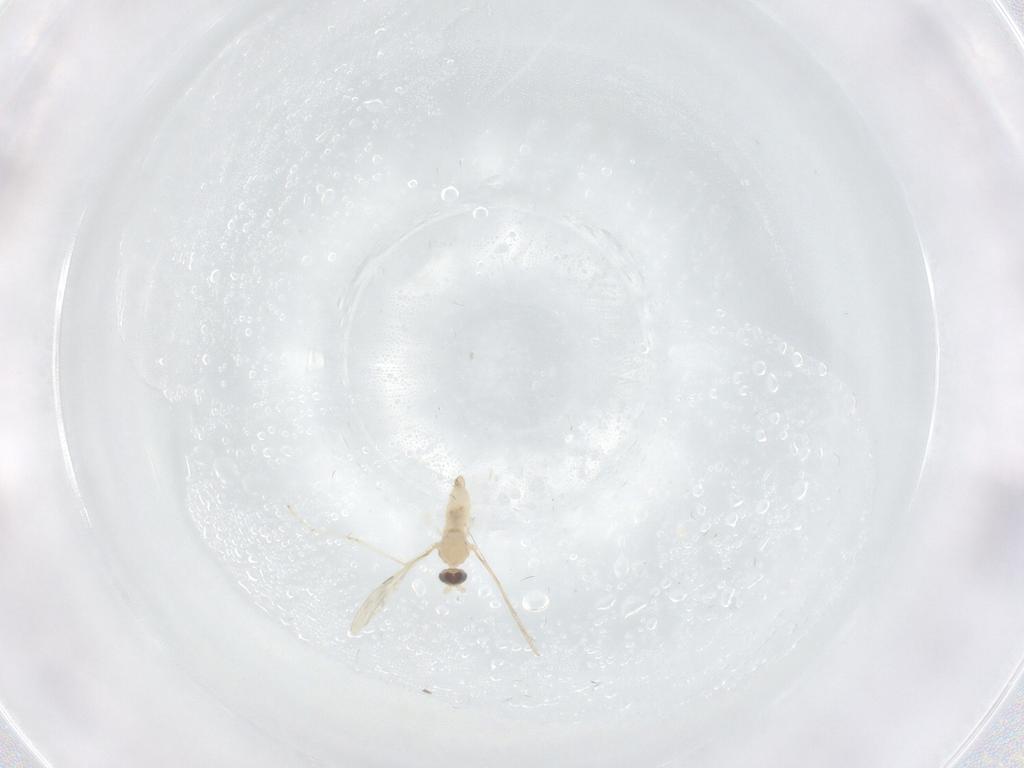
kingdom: Animalia
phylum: Arthropoda
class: Insecta
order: Diptera
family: Cecidomyiidae
